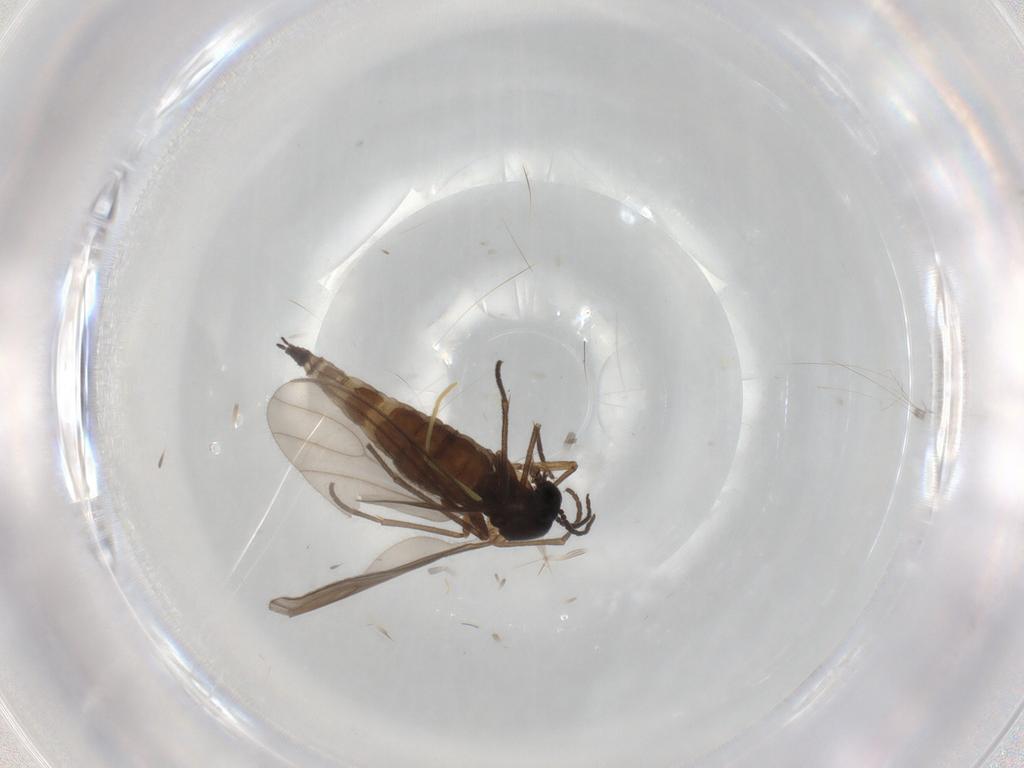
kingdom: Animalia
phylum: Arthropoda
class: Insecta
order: Diptera
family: Sciaridae
